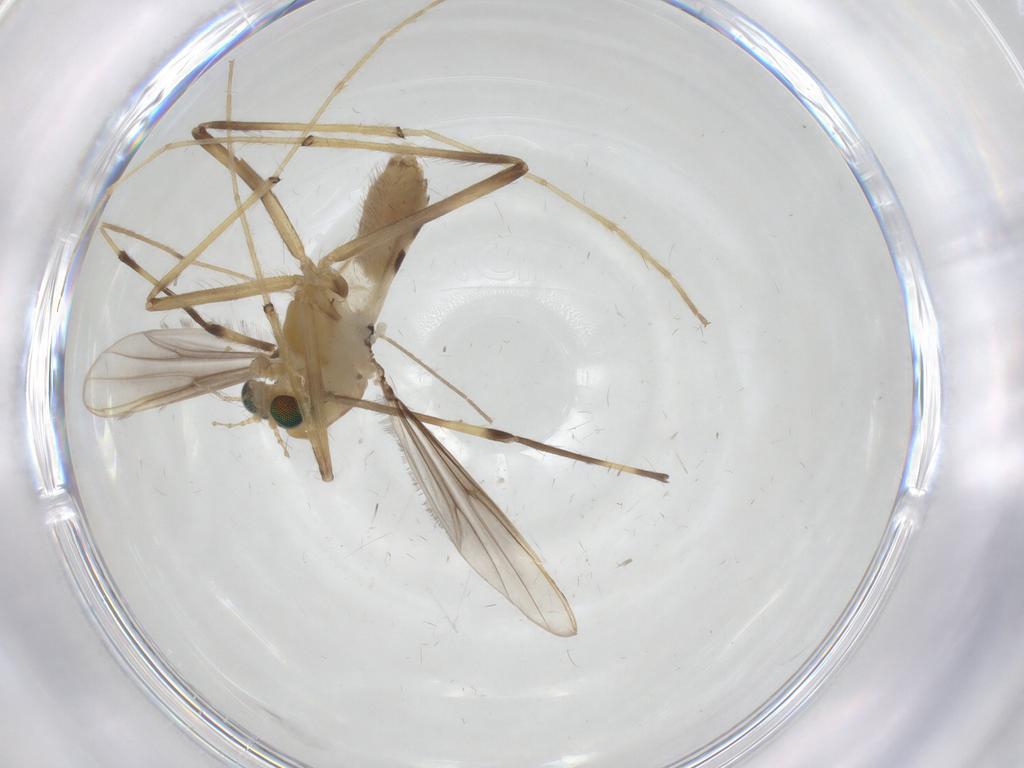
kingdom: Animalia
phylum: Arthropoda
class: Insecta
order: Diptera
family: Chironomidae
